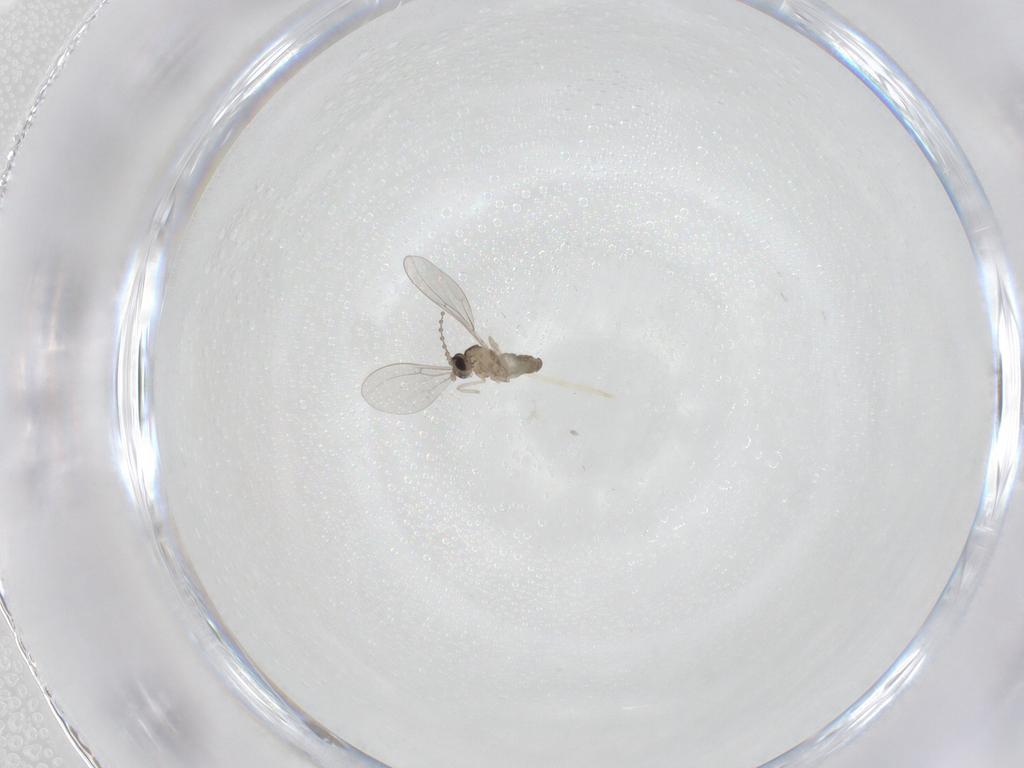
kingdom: Animalia
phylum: Arthropoda
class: Insecta
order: Diptera
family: Cecidomyiidae
